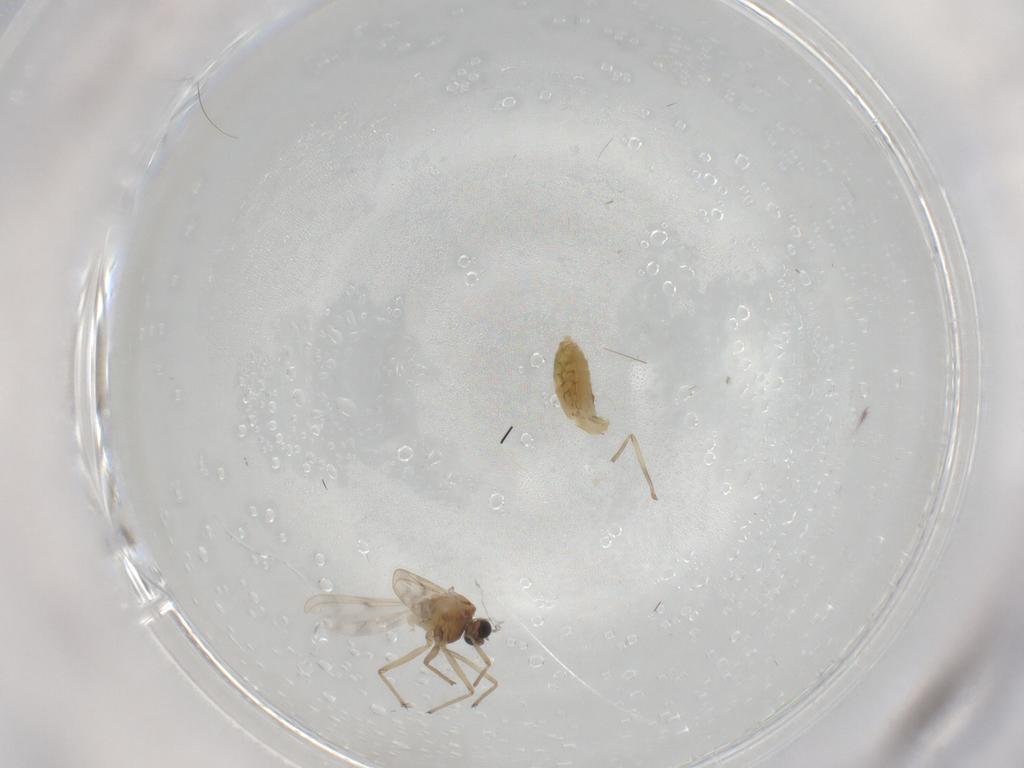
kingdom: Animalia
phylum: Arthropoda
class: Insecta
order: Diptera
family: Chironomidae
